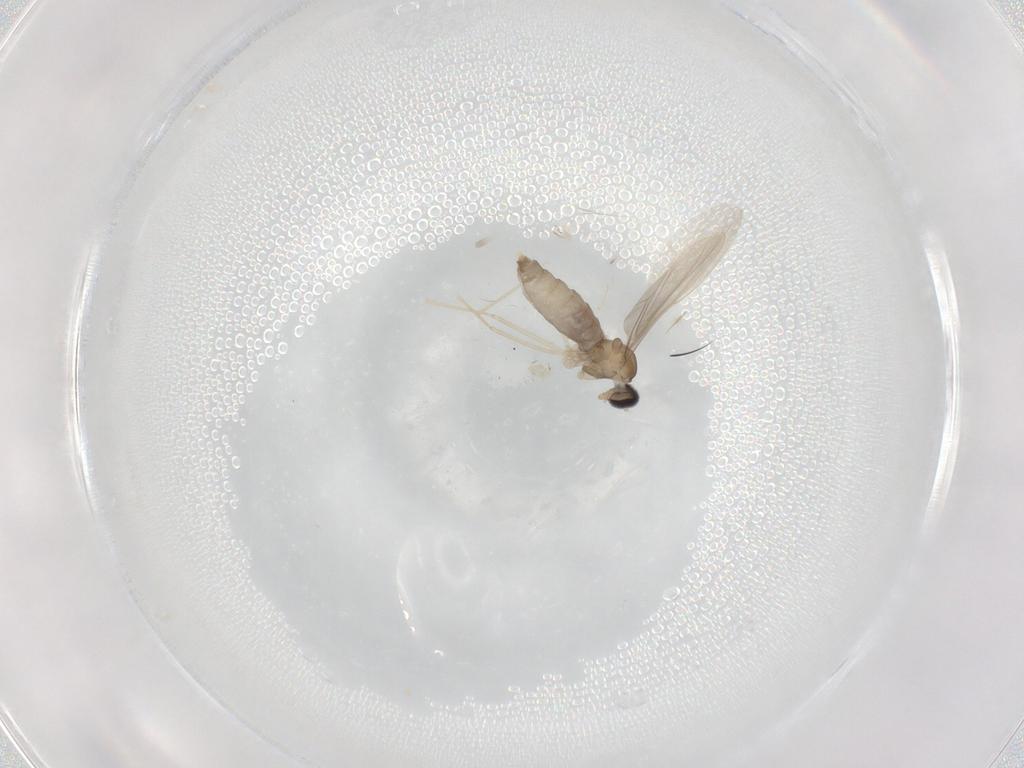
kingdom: Animalia
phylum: Arthropoda
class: Insecta
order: Diptera
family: Cecidomyiidae
